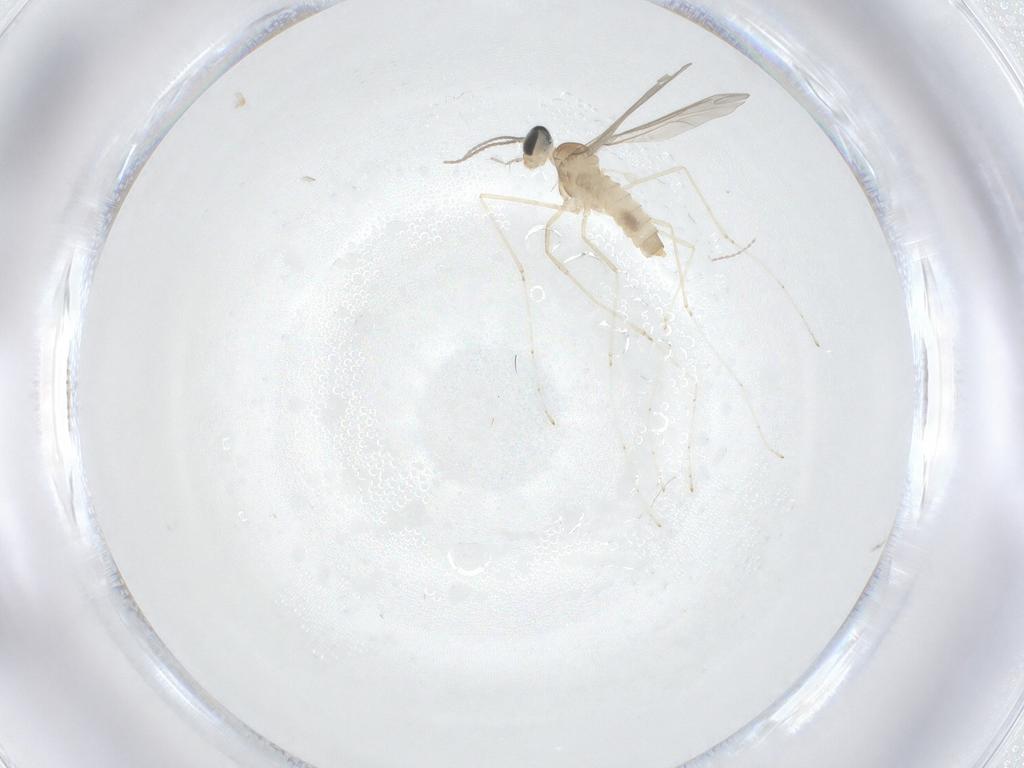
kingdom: Animalia
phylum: Arthropoda
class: Insecta
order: Diptera
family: Cecidomyiidae
